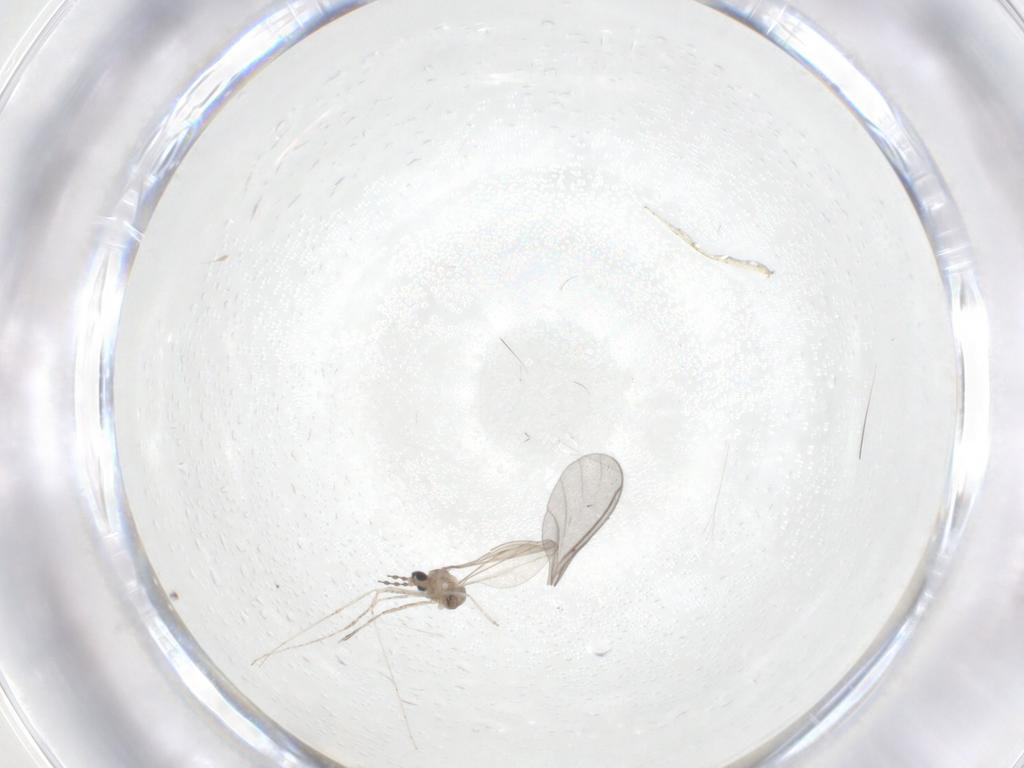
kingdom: Animalia
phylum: Arthropoda
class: Insecta
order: Diptera
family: Cecidomyiidae
